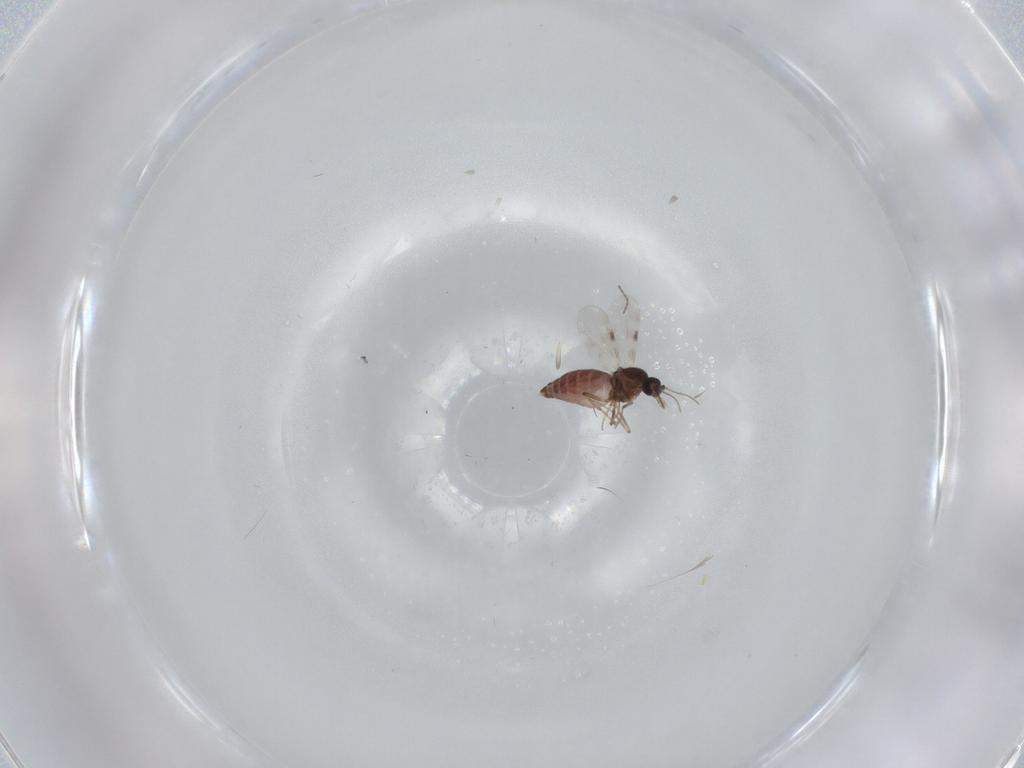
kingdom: Animalia
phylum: Arthropoda
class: Insecta
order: Diptera
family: Cecidomyiidae
